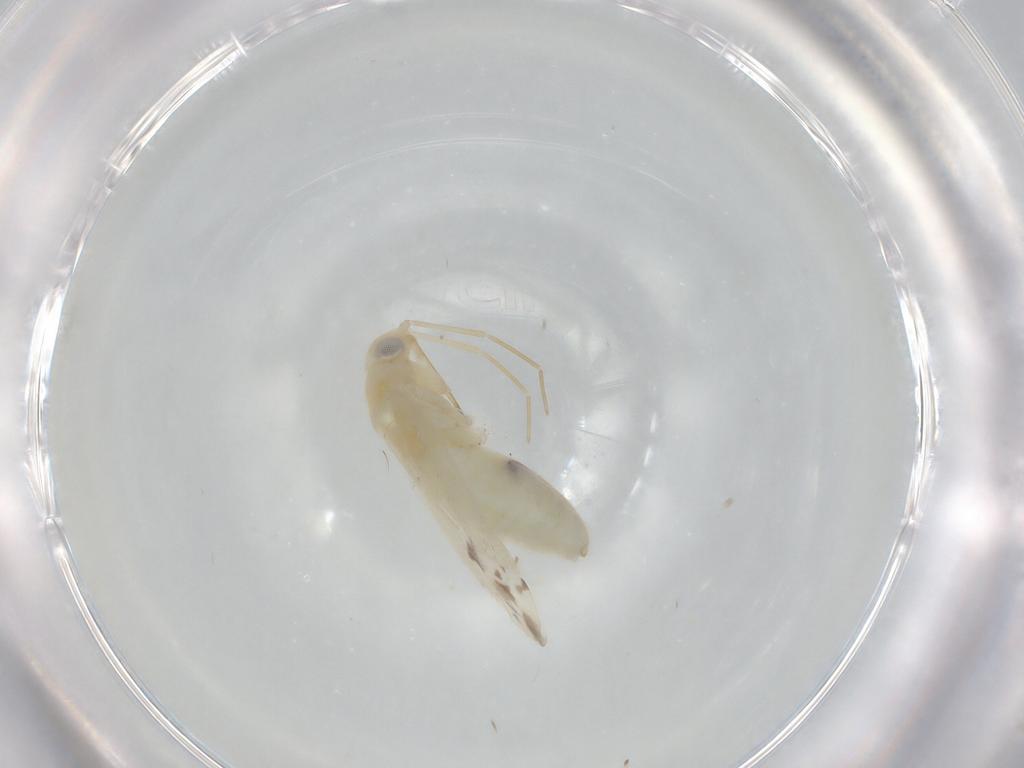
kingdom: Animalia
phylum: Arthropoda
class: Insecta
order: Hemiptera
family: Miridae
